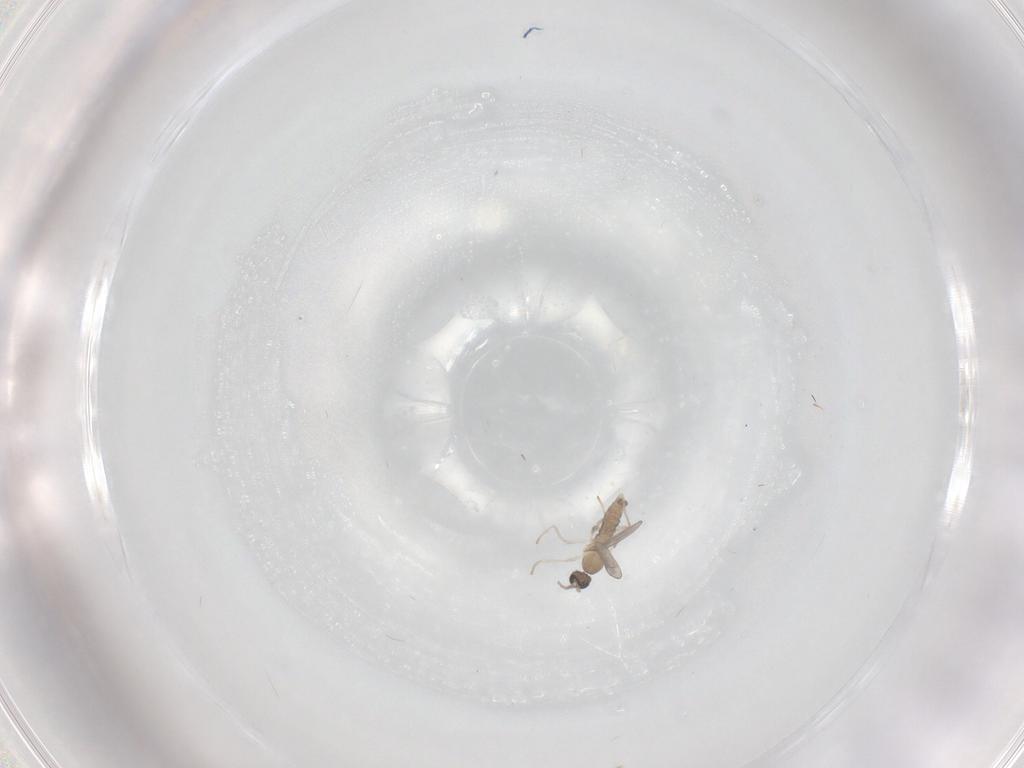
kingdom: Animalia
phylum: Arthropoda
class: Insecta
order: Diptera
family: Cecidomyiidae
